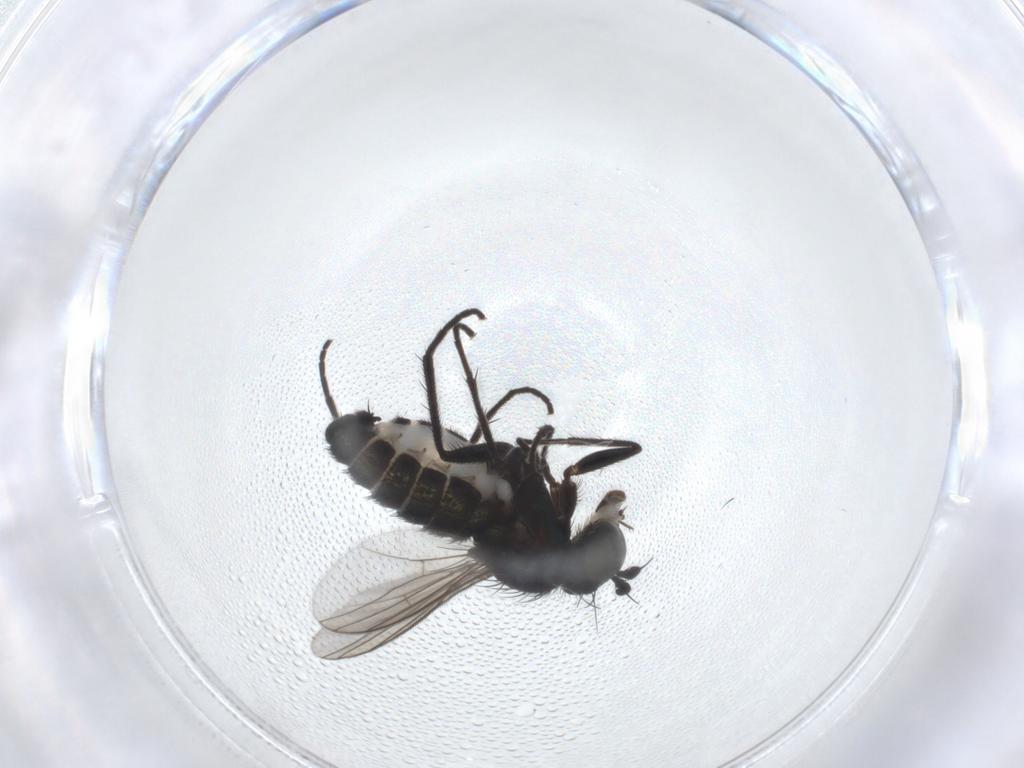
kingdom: Animalia
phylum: Arthropoda
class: Insecta
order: Diptera
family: Dolichopodidae
